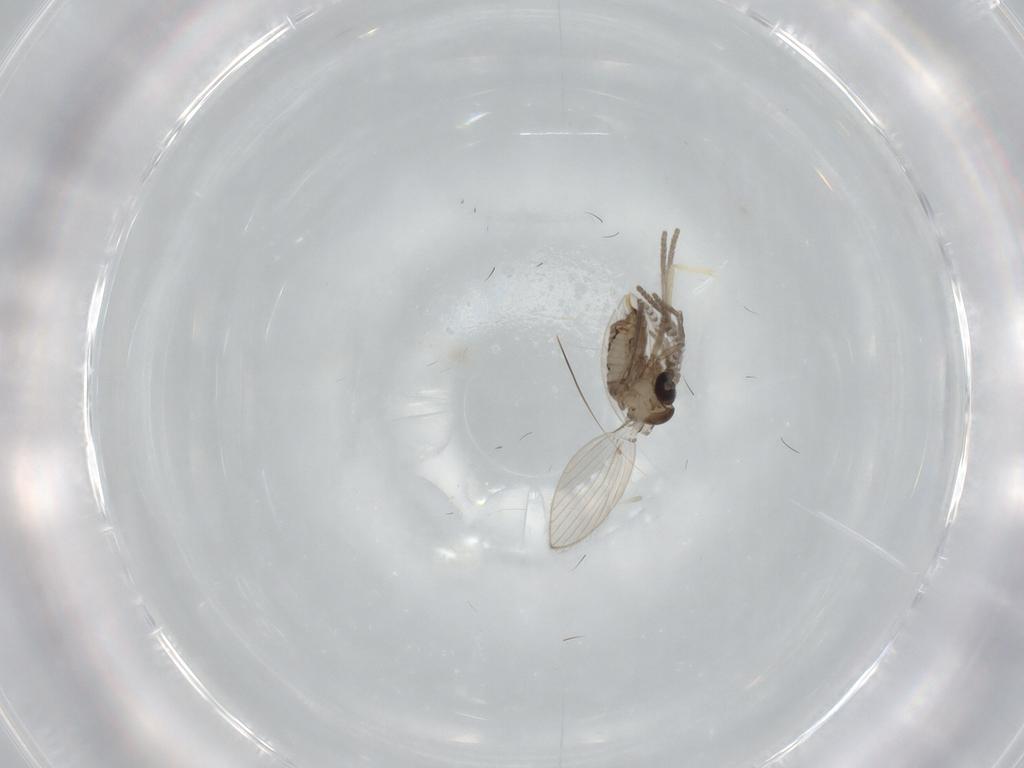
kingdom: Animalia
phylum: Arthropoda
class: Insecta
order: Diptera
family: Psychodidae
